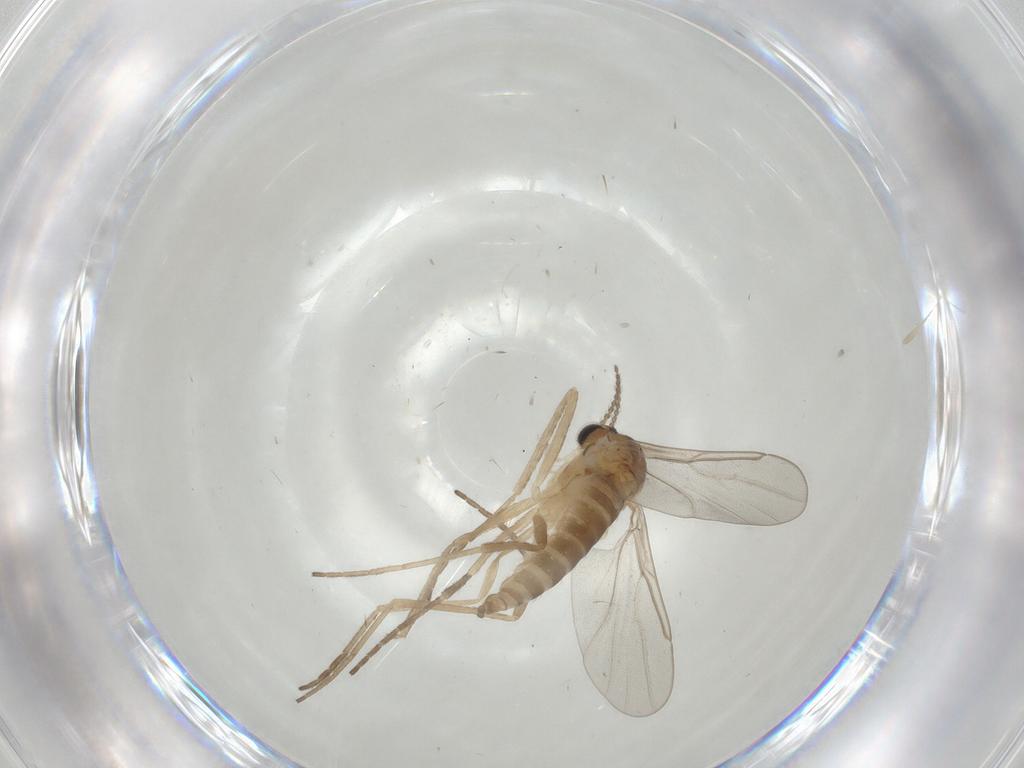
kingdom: Animalia
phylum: Arthropoda
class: Insecta
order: Diptera
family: Cecidomyiidae
